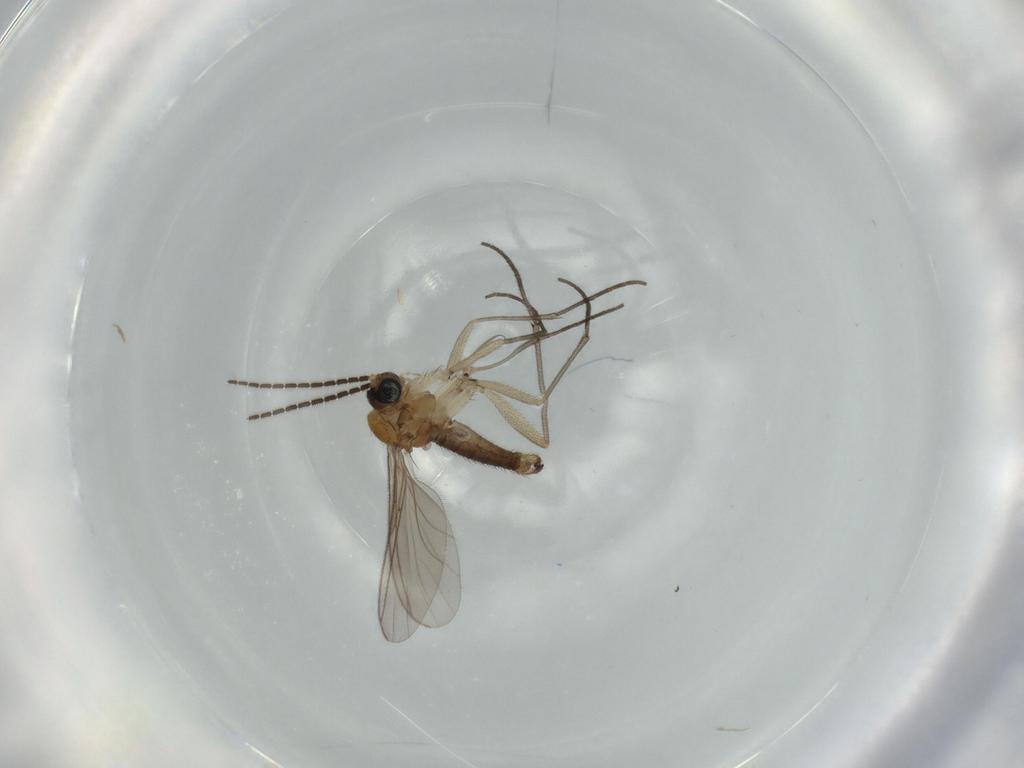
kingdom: Animalia
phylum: Arthropoda
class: Insecta
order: Diptera
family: Sciaridae
